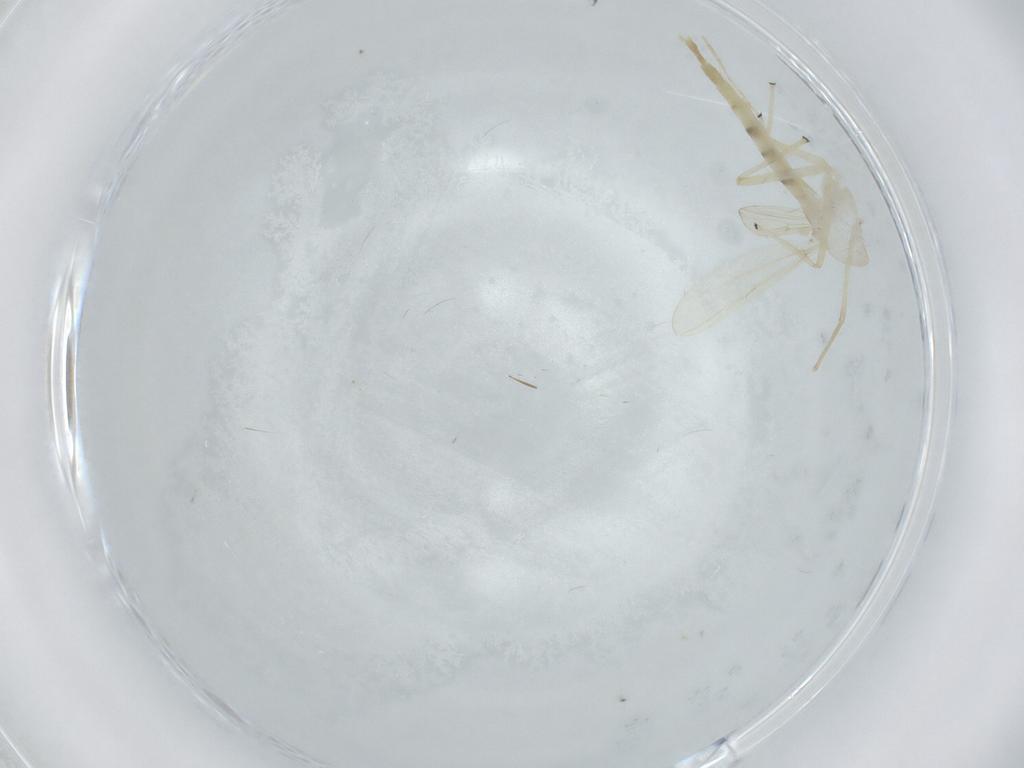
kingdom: Animalia
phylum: Arthropoda
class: Insecta
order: Diptera
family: Chironomidae
